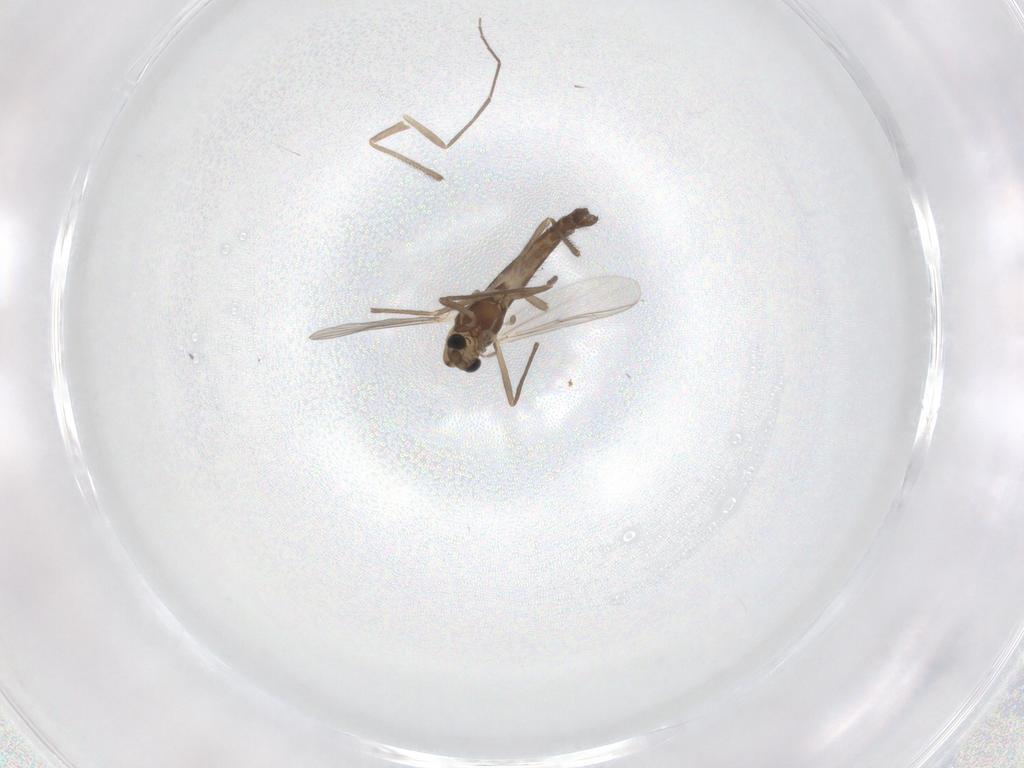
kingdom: Animalia
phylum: Arthropoda
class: Insecta
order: Diptera
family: Chironomidae
